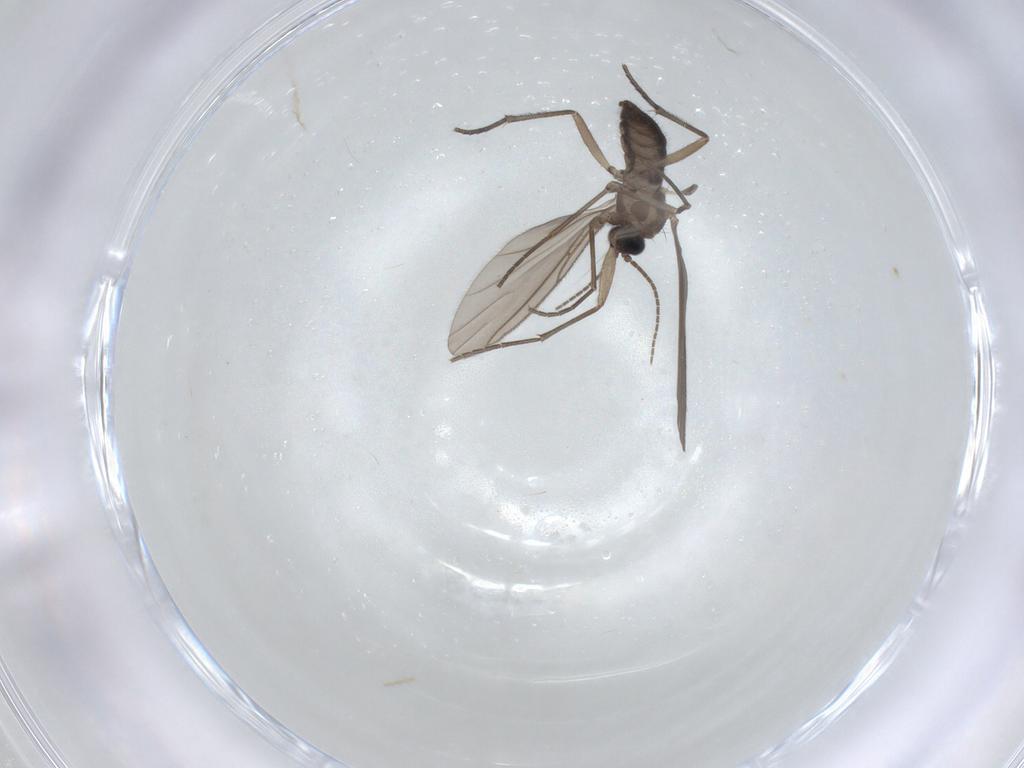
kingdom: Animalia
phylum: Arthropoda
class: Insecta
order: Diptera
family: Sciaridae
